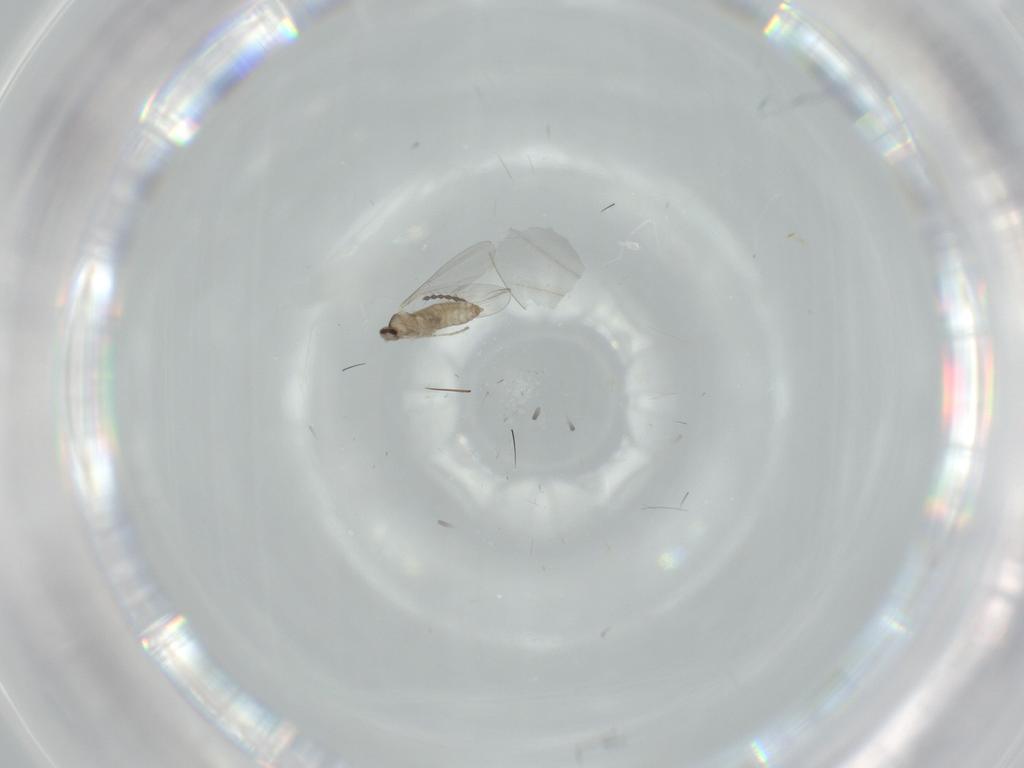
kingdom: Animalia
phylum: Arthropoda
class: Insecta
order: Diptera
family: Cecidomyiidae
